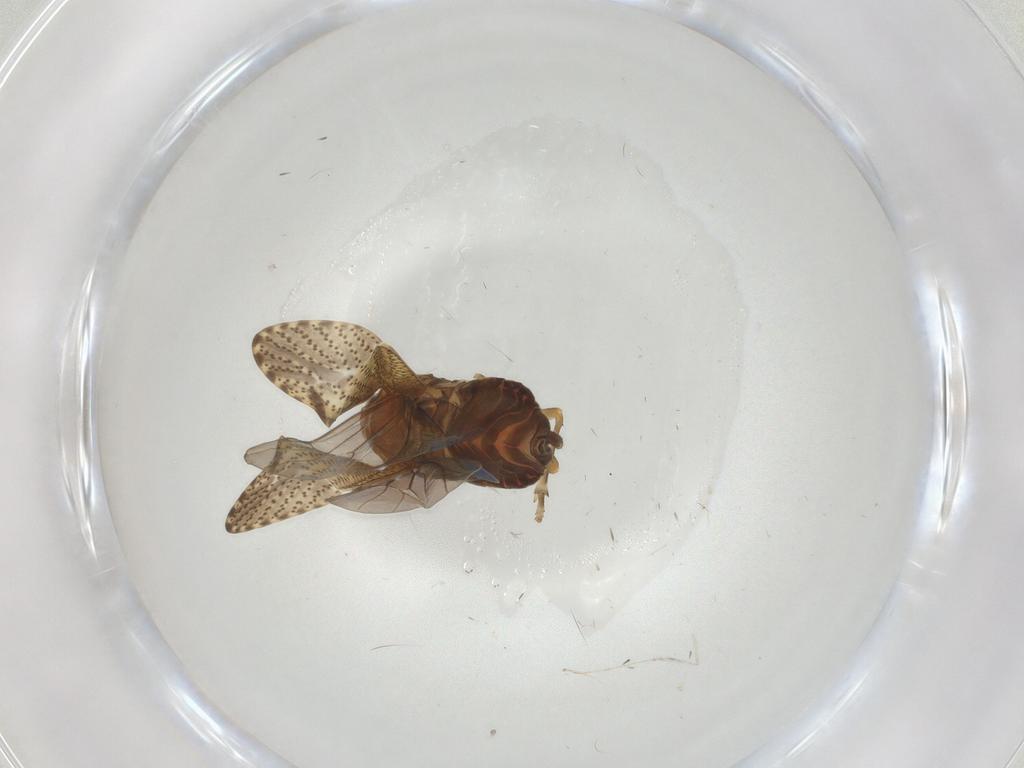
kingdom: Animalia
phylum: Arthropoda
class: Insecta
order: Hemiptera
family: Delphacidae
